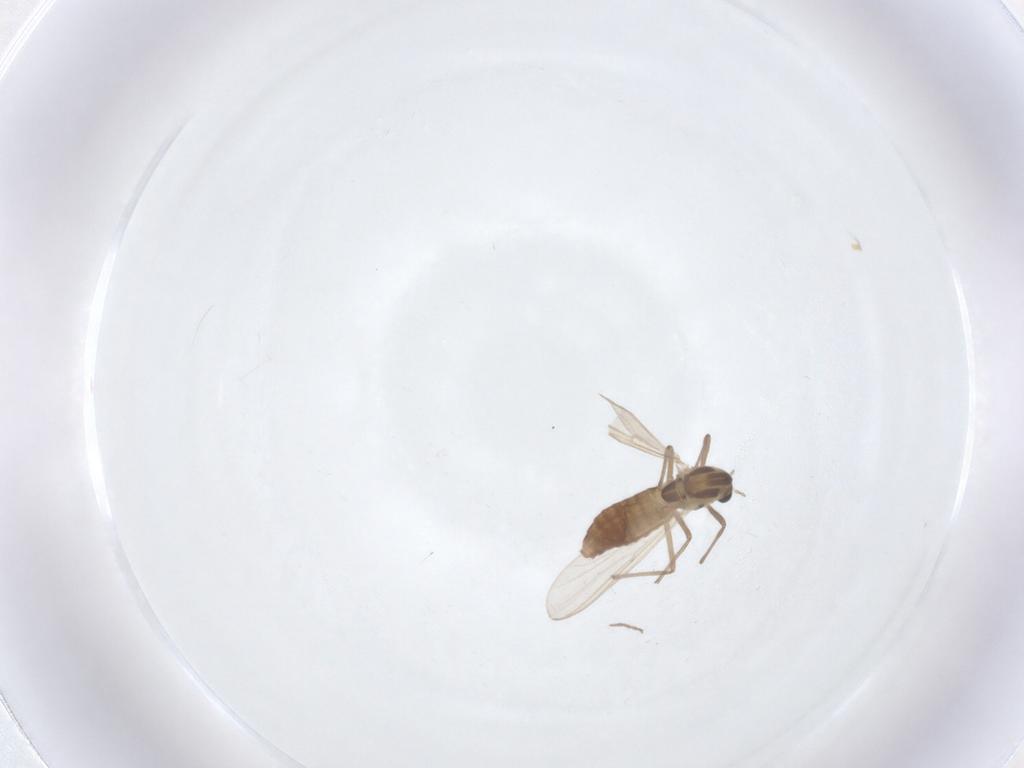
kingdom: Animalia
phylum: Arthropoda
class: Insecta
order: Diptera
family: Chironomidae
